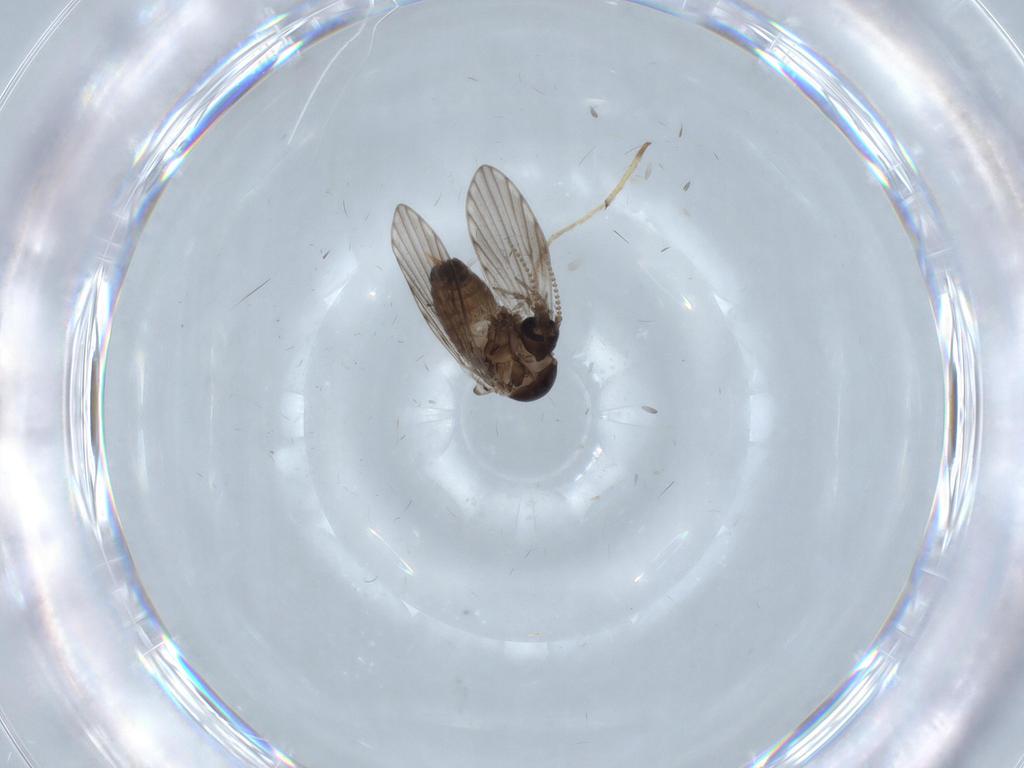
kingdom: Animalia
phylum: Arthropoda
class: Insecta
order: Diptera
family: Psychodidae
